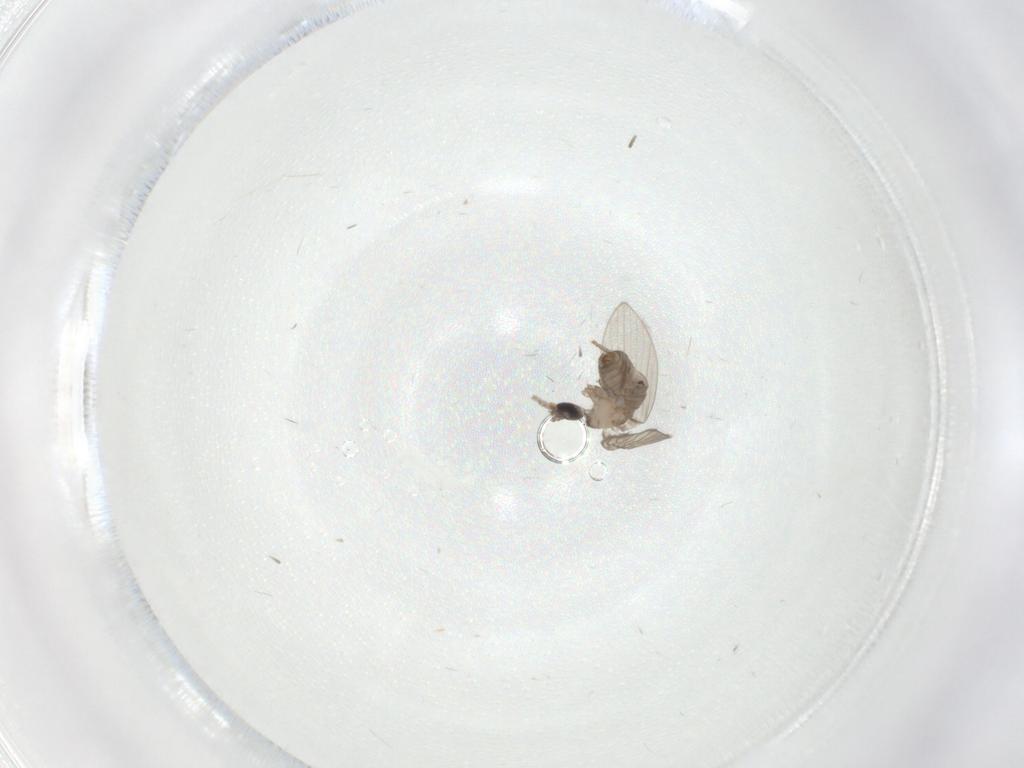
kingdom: Animalia
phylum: Arthropoda
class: Insecta
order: Diptera
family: Psychodidae
